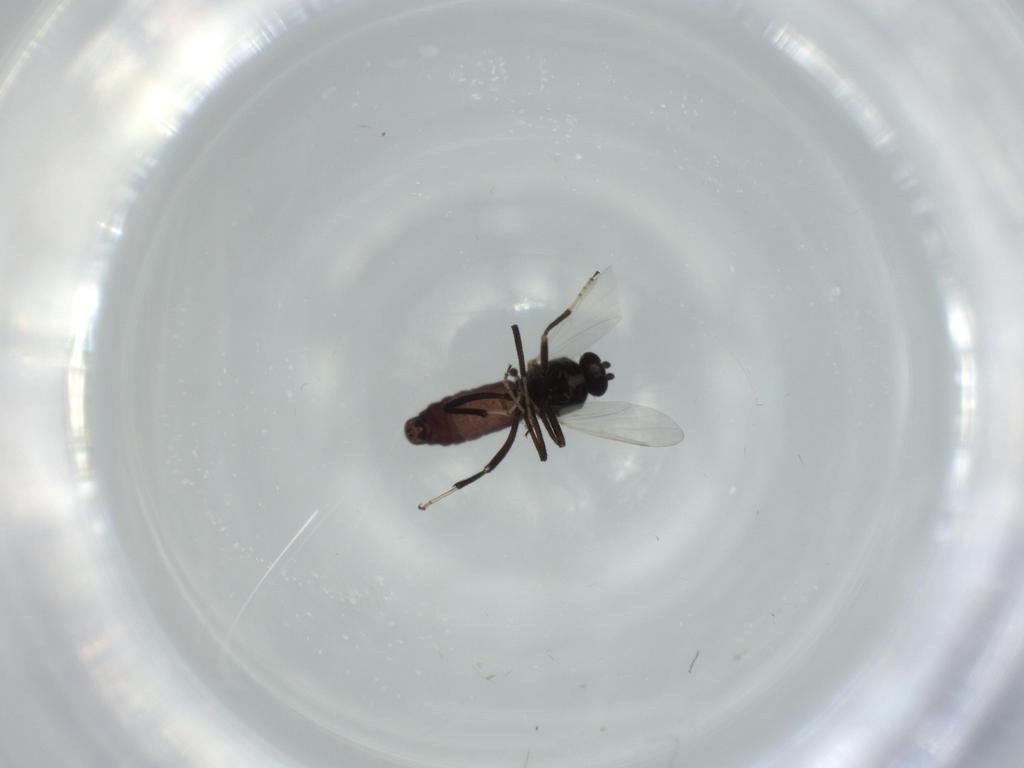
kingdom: Animalia
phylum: Arthropoda
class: Insecta
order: Diptera
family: Ceratopogonidae
